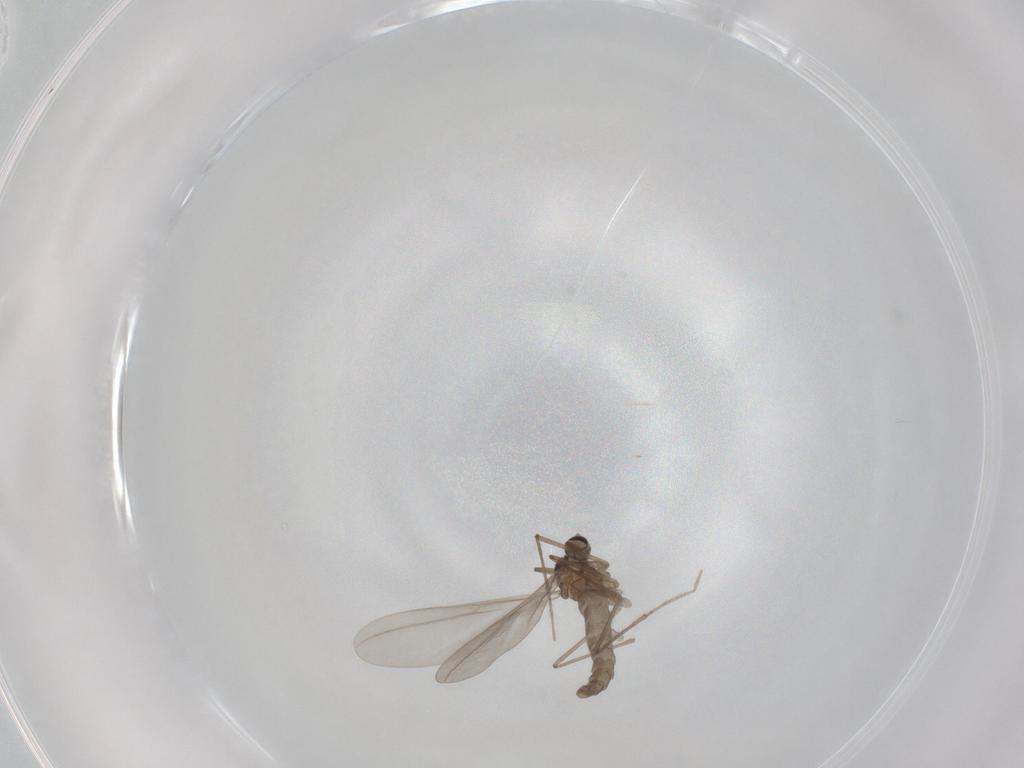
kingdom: Animalia
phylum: Arthropoda
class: Insecta
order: Diptera
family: Cecidomyiidae
